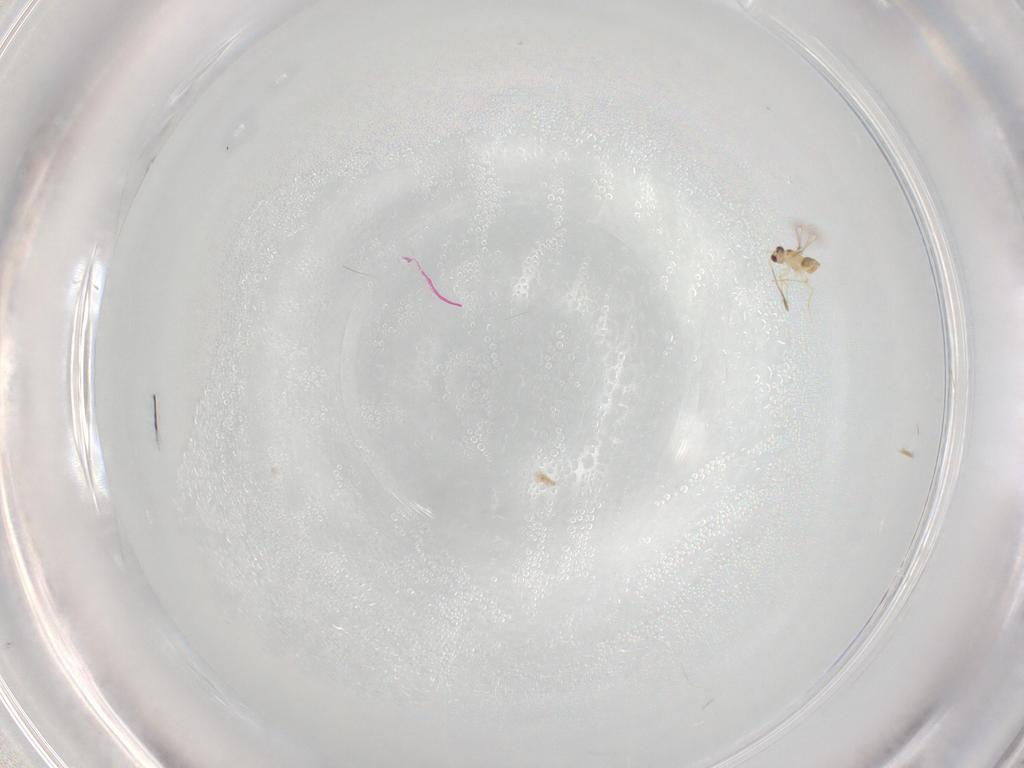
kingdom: Animalia
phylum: Arthropoda
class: Insecta
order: Hymenoptera
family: Mymaridae
